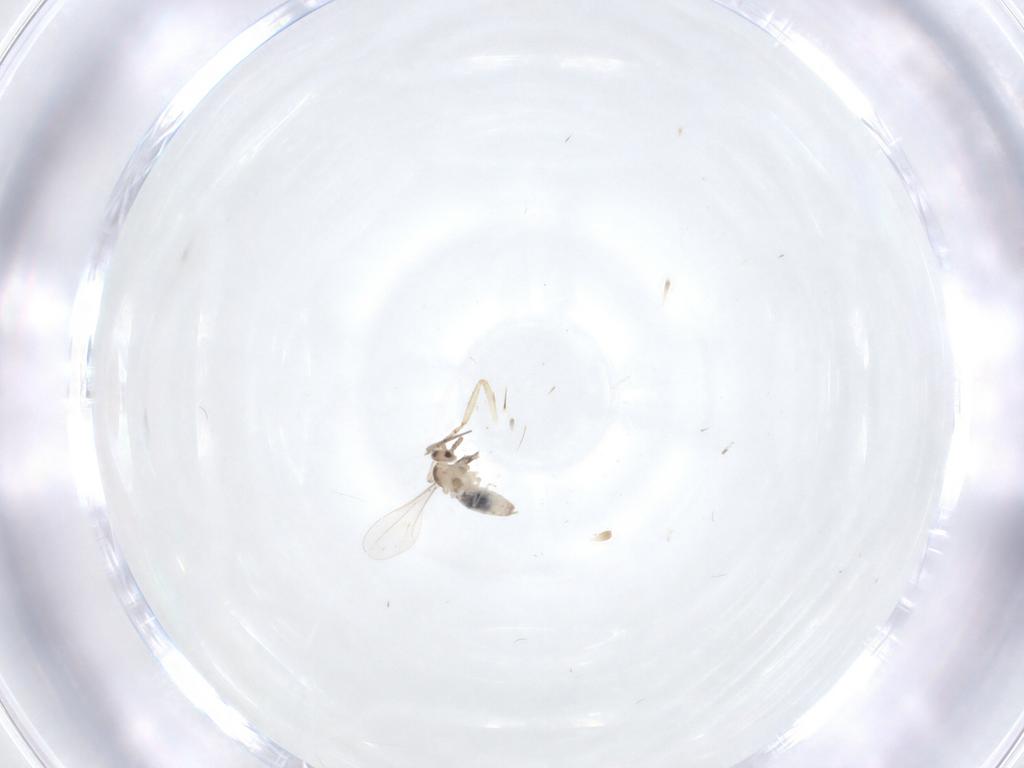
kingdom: Animalia
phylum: Arthropoda
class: Insecta
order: Diptera
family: Cecidomyiidae
